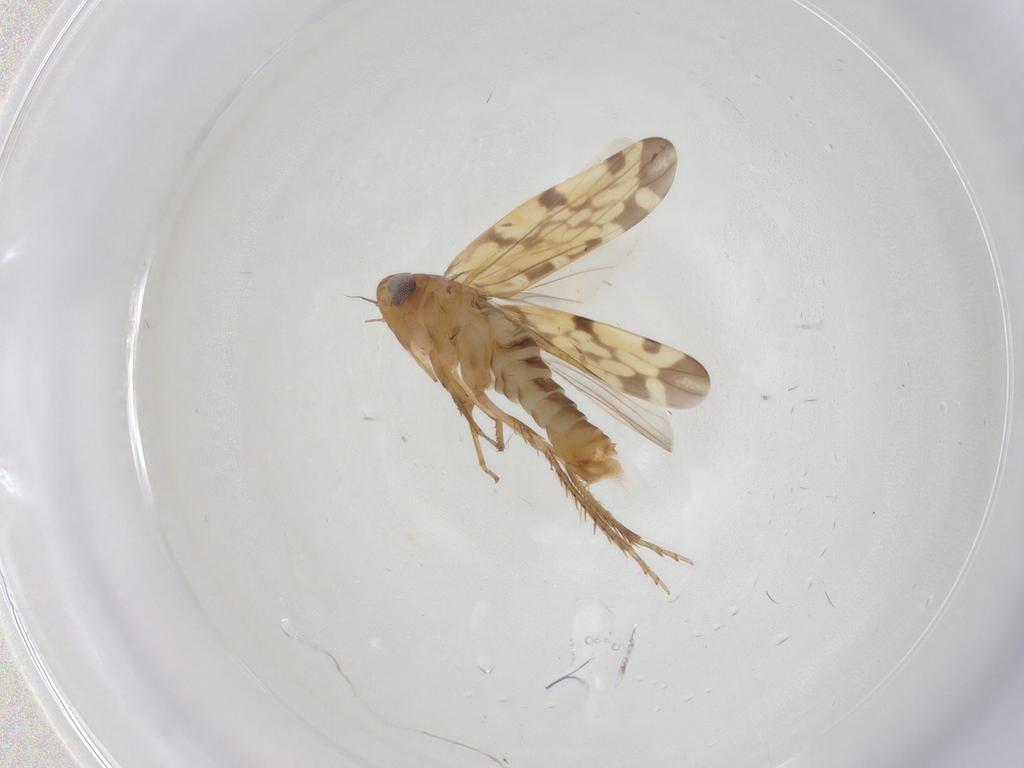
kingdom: Animalia
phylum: Arthropoda
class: Insecta
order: Hemiptera
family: Cicadellidae
